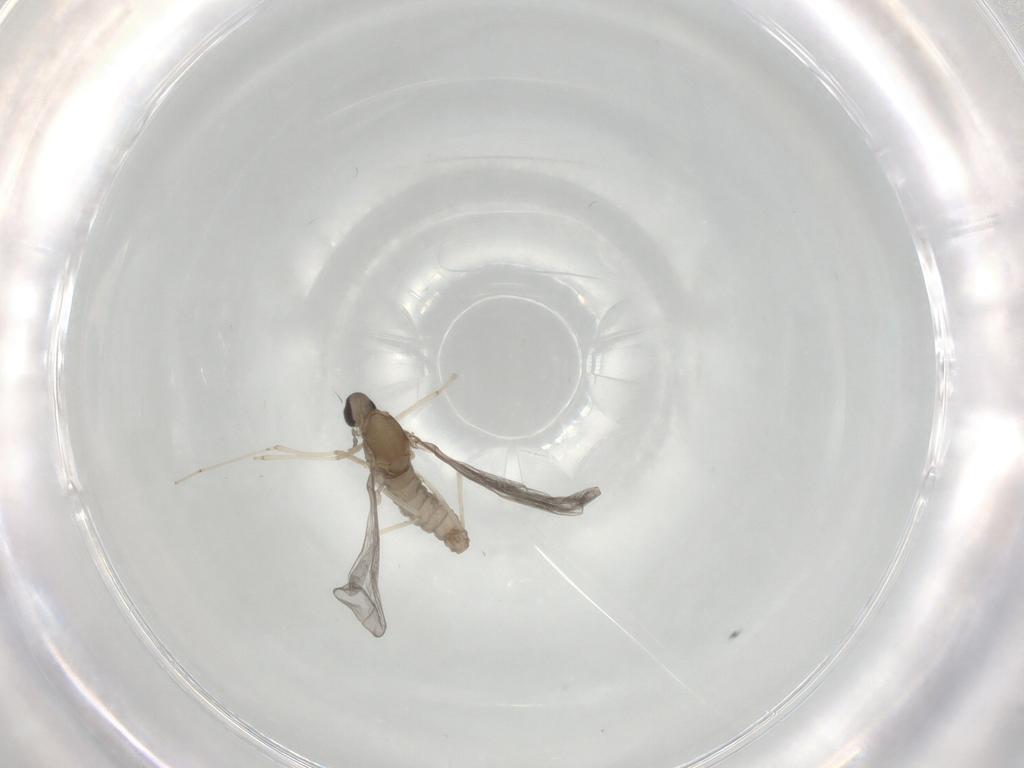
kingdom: Animalia
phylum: Arthropoda
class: Insecta
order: Diptera
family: Cecidomyiidae
